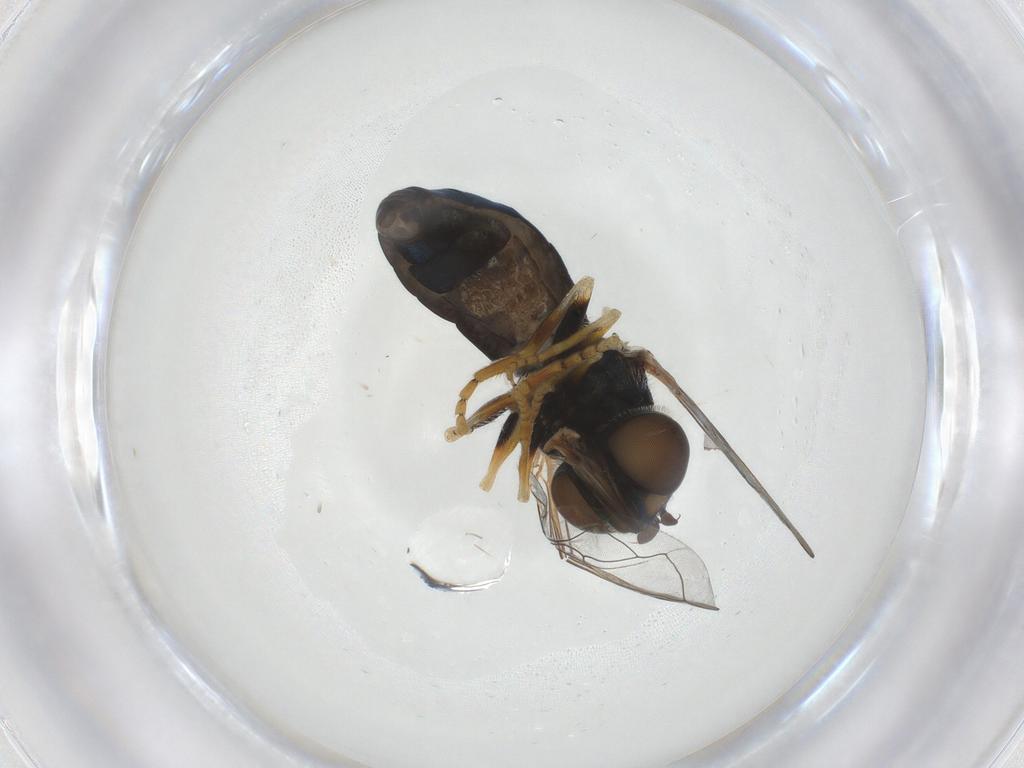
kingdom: Animalia
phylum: Arthropoda
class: Insecta
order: Diptera
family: Syrphidae
